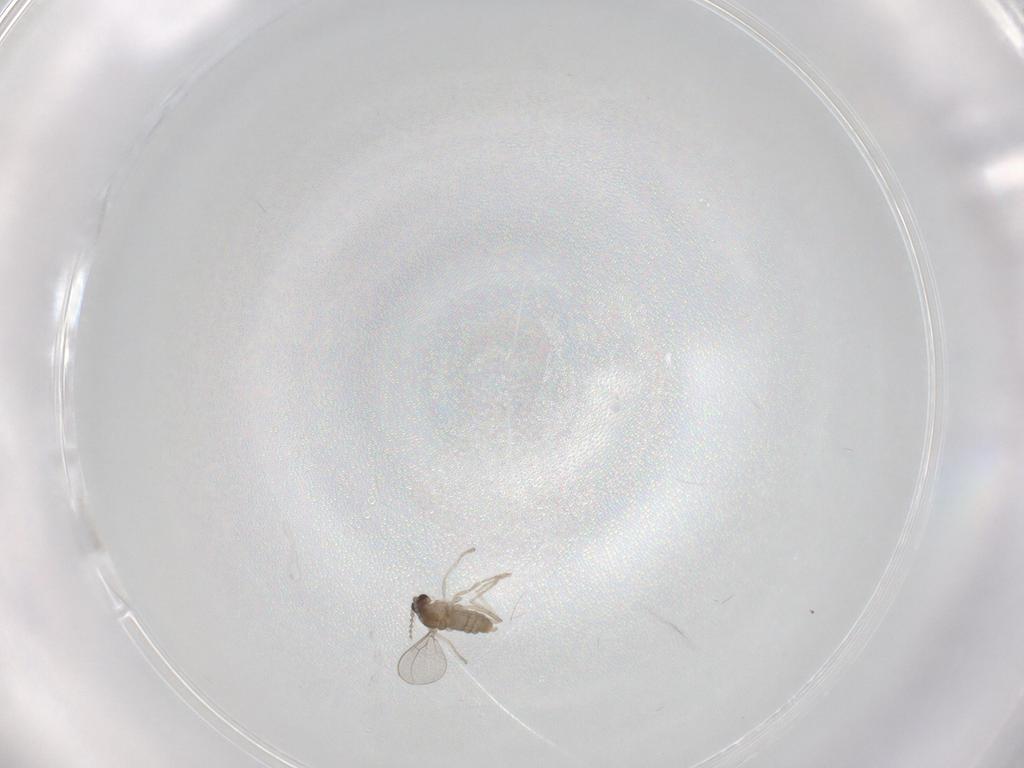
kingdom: Animalia
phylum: Arthropoda
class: Insecta
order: Diptera
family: Cecidomyiidae
